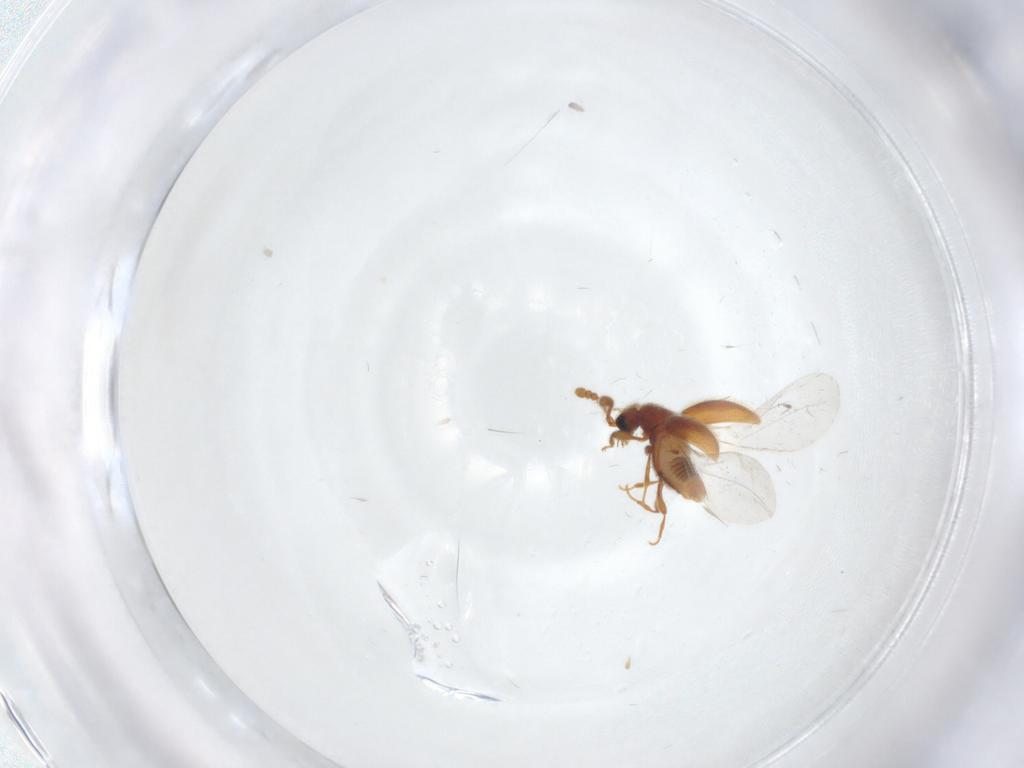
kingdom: Animalia
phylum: Arthropoda
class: Insecta
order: Coleoptera
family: Staphylinidae
